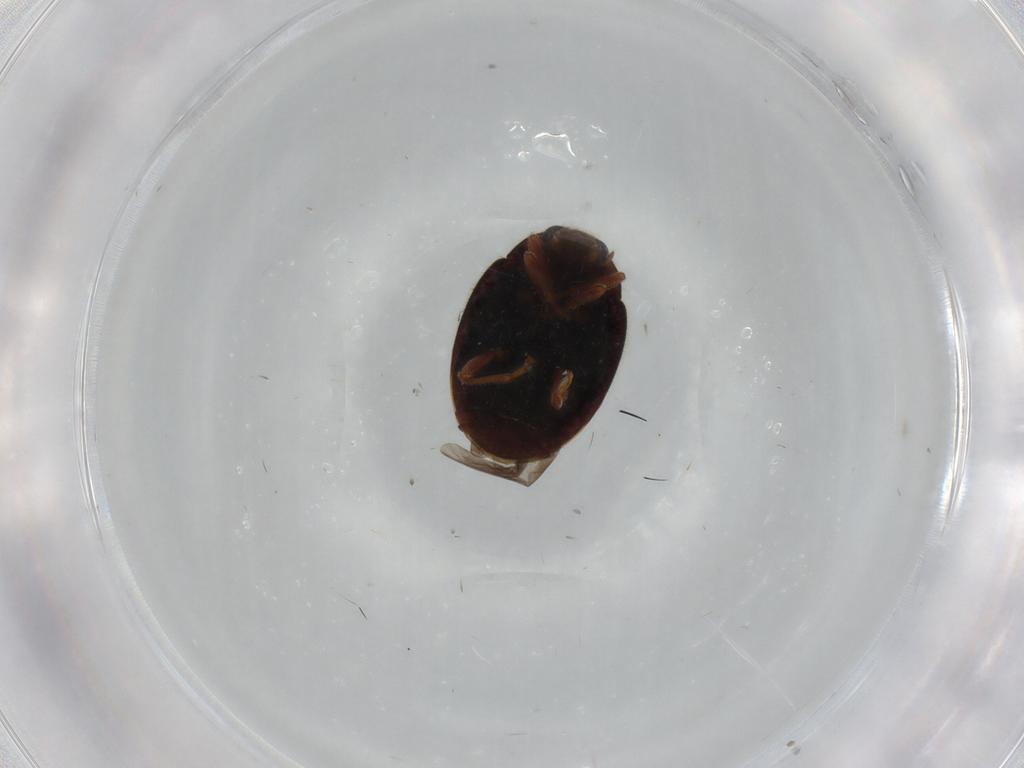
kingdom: Animalia
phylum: Arthropoda
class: Insecta
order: Coleoptera
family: Coccinellidae
